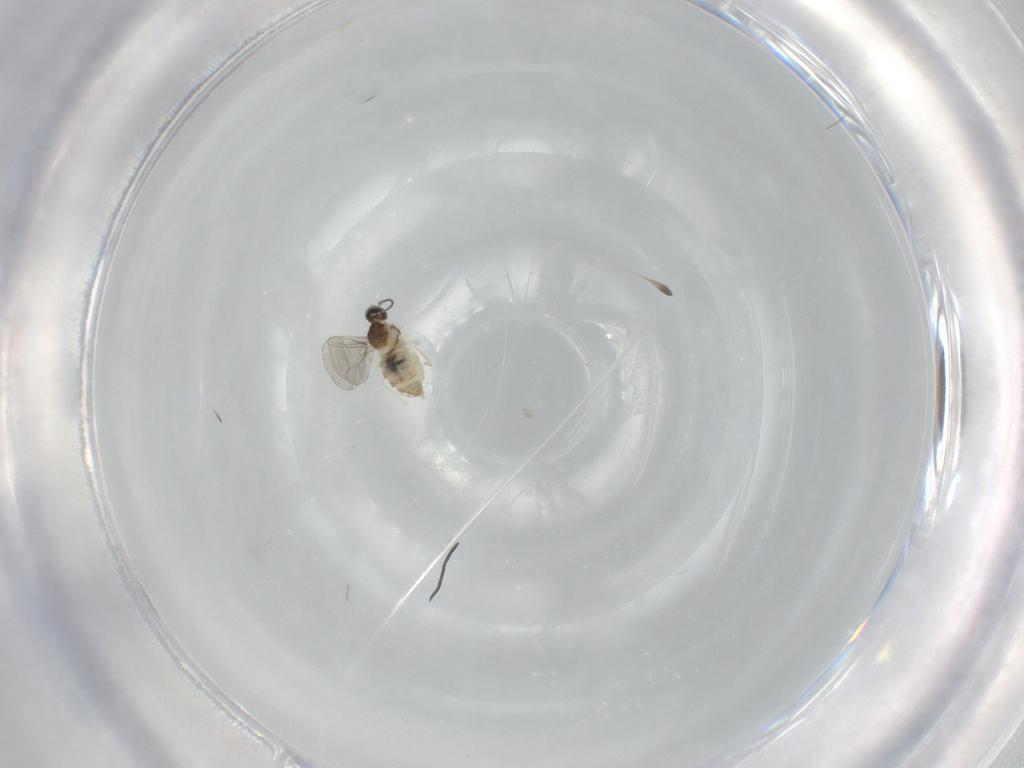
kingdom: Animalia
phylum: Arthropoda
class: Insecta
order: Diptera
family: Cecidomyiidae
